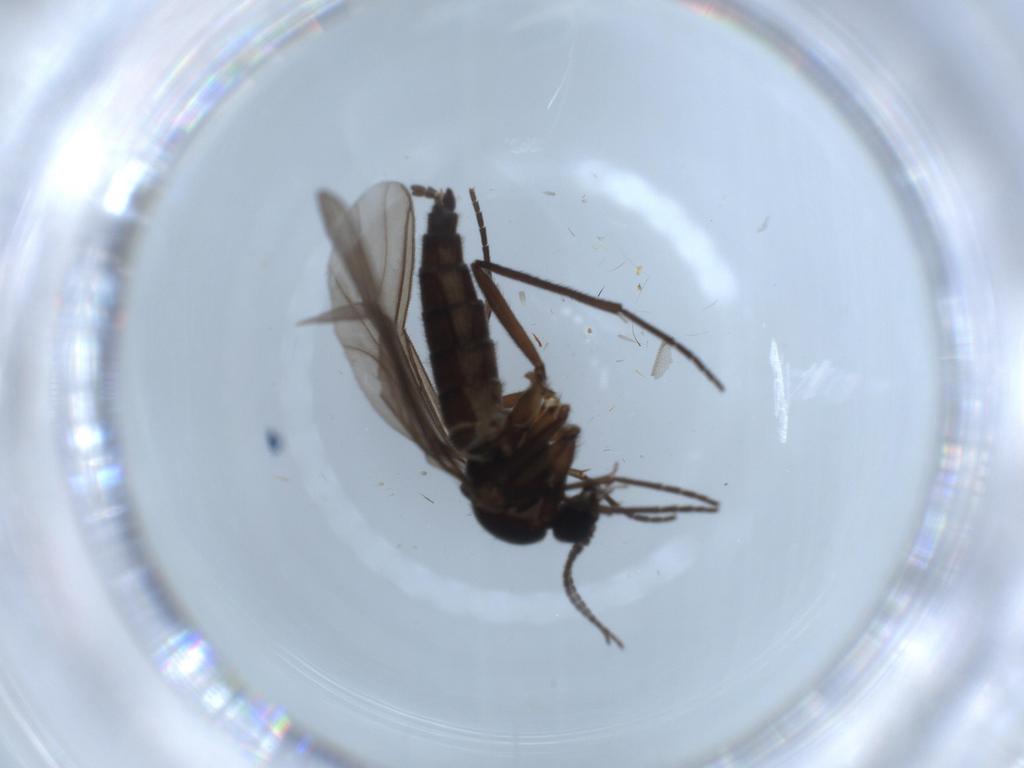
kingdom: Animalia
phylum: Arthropoda
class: Insecta
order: Diptera
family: Sciaridae
